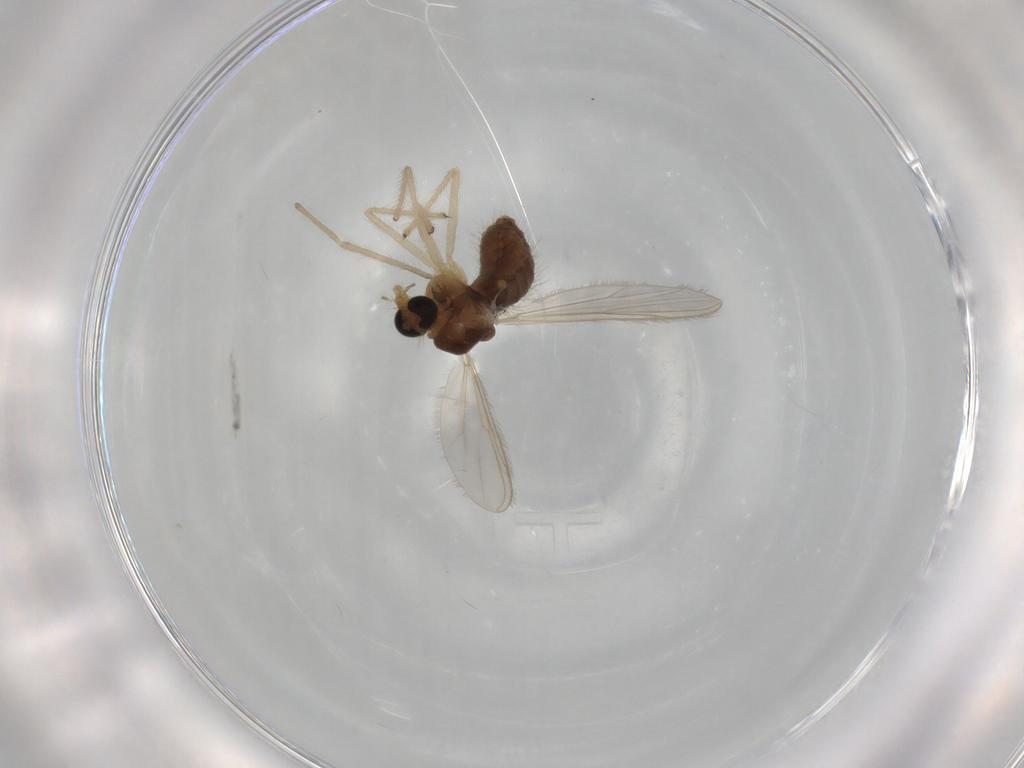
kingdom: Animalia
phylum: Arthropoda
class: Insecta
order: Diptera
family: Chironomidae
